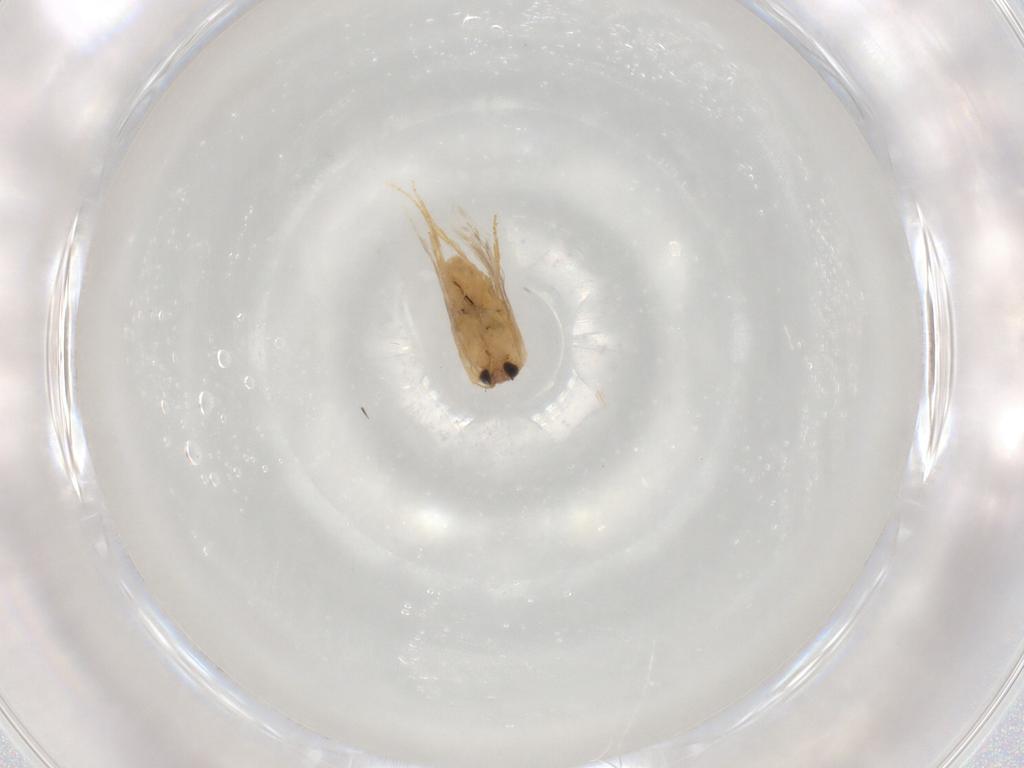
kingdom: Animalia
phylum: Arthropoda
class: Insecta
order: Lepidoptera
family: Nepticulidae
